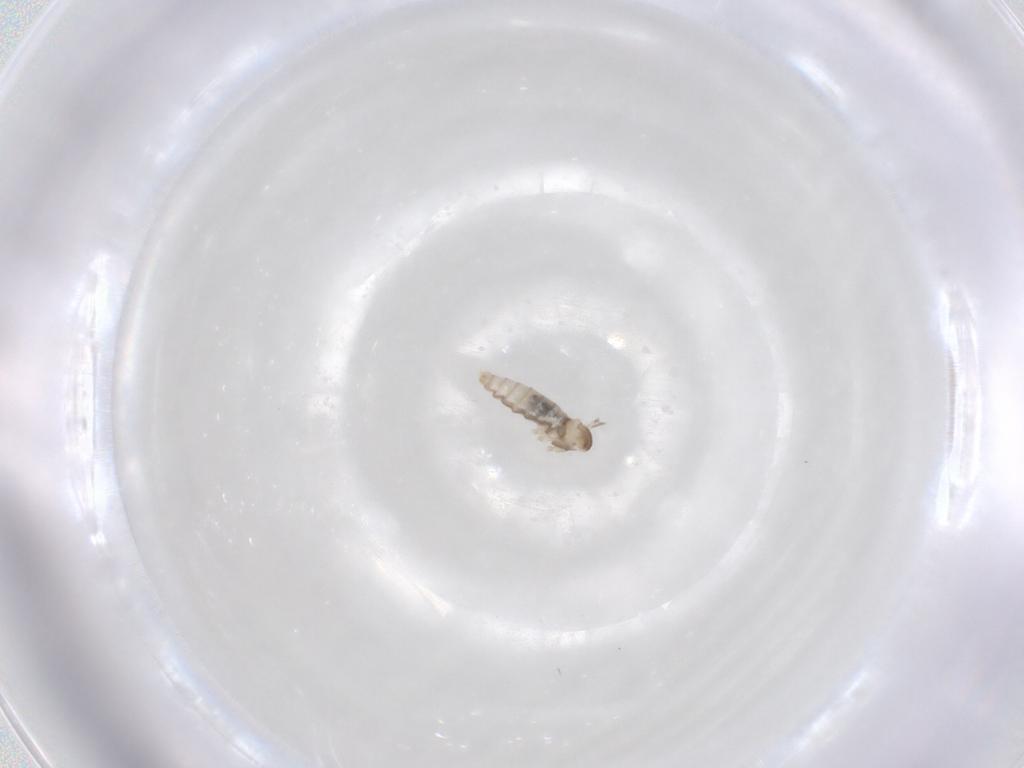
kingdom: Animalia
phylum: Arthropoda
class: Insecta
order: Diptera
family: Cecidomyiidae
